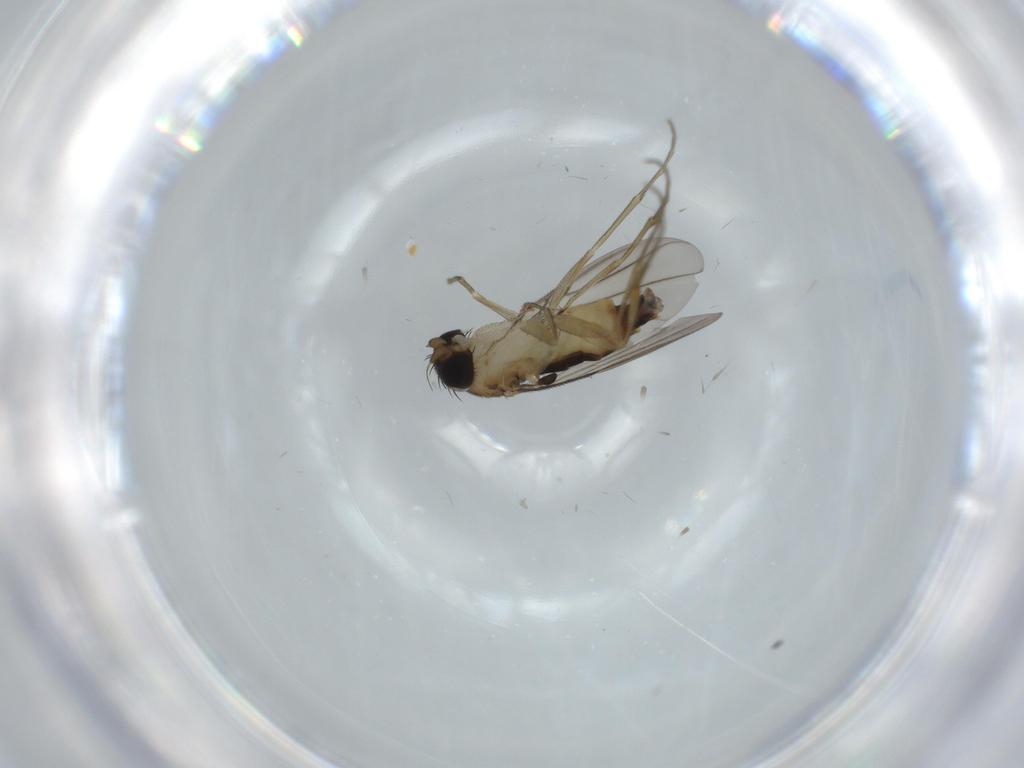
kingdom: Animalia
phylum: Arthropoda
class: Insecta
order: Diptera
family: Phoridae
